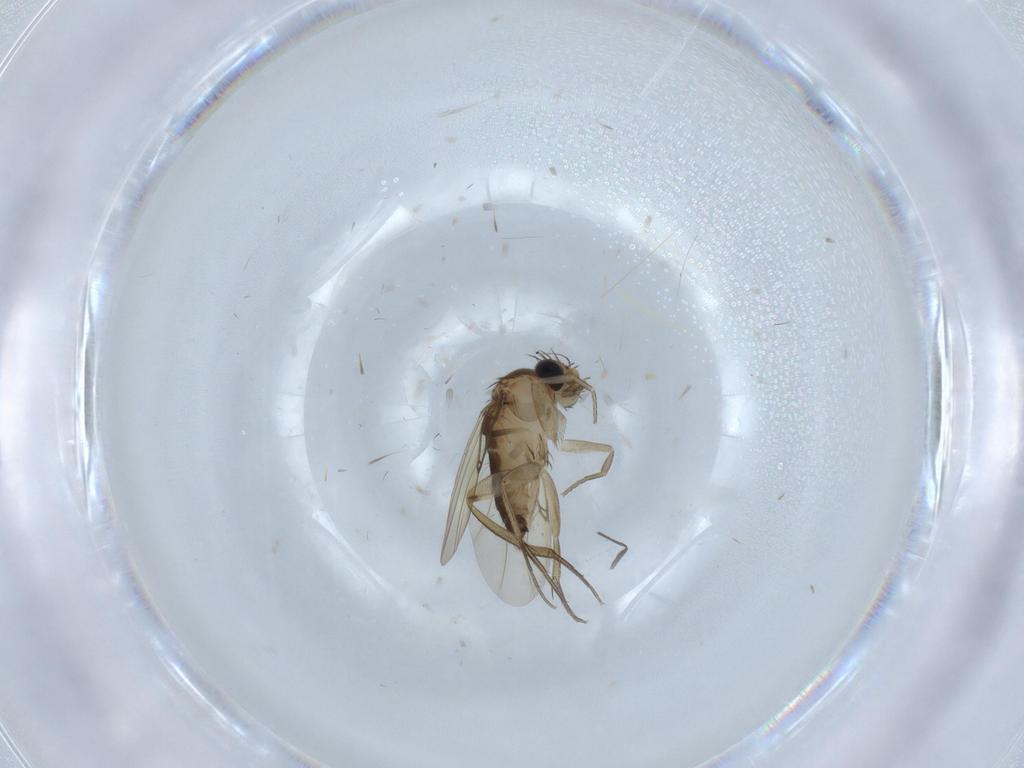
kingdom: Animalia
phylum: Arthropoda
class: Insecta
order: Diptera
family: Phoridae
